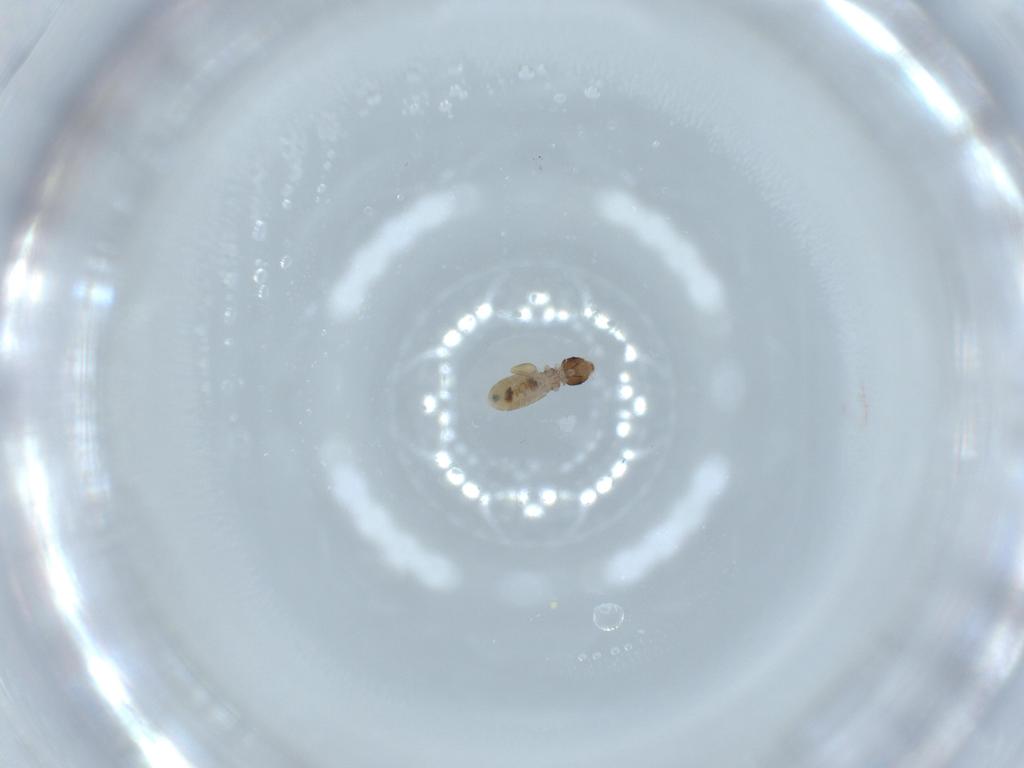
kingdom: Animalia
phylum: Arthropoda
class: Insecta
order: Psocodea
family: Liposcelididae
